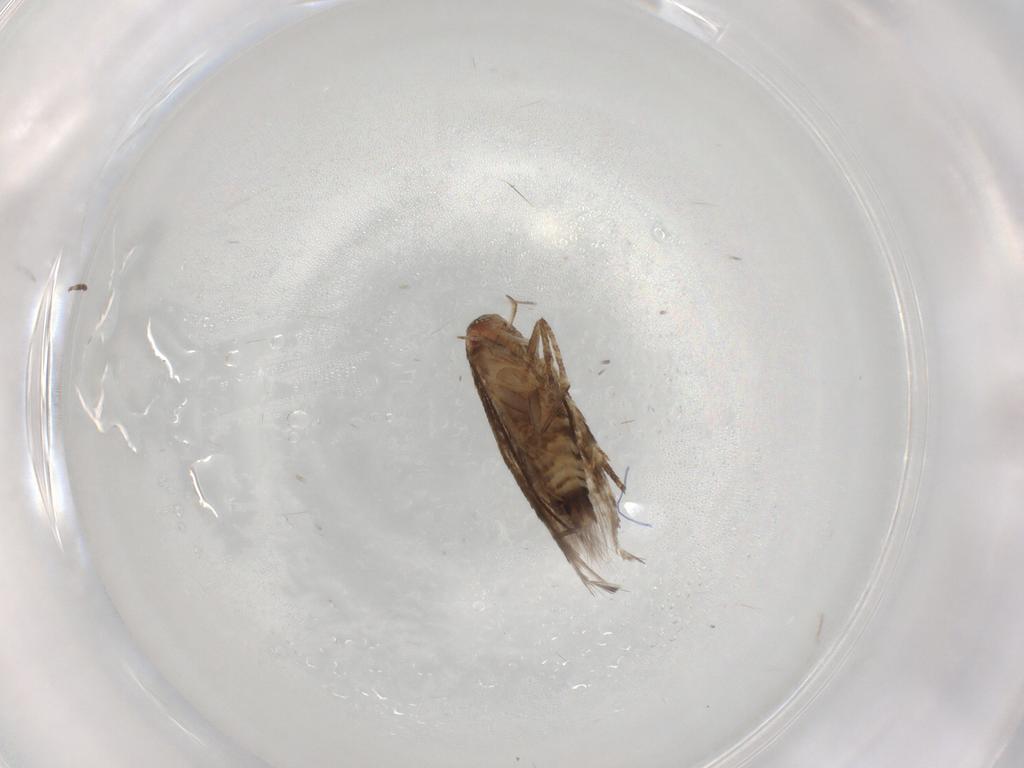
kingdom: Animalia
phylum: Arthropoda
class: Insecta
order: Lepidoptera
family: Momphidae
